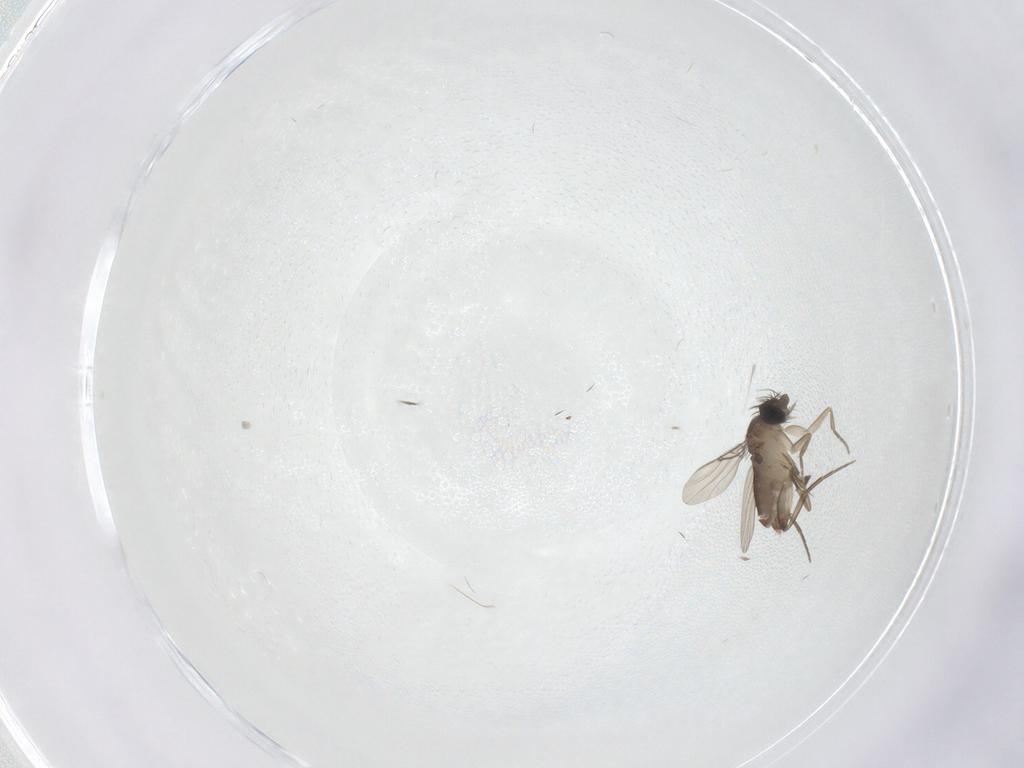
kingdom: Animalia
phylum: Arthropoda
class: Insecta
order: Diptera
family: Phoridae
